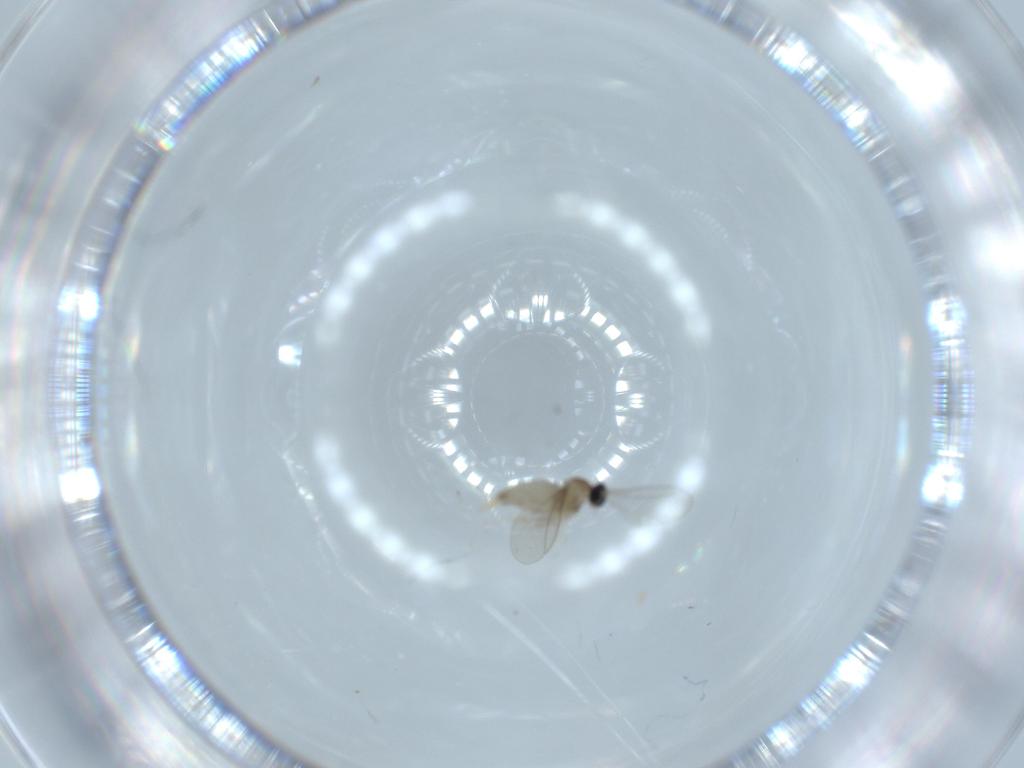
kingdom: Animalia
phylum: Arthropoda
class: Insecta
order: Diptera
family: Cecidomyiidae
